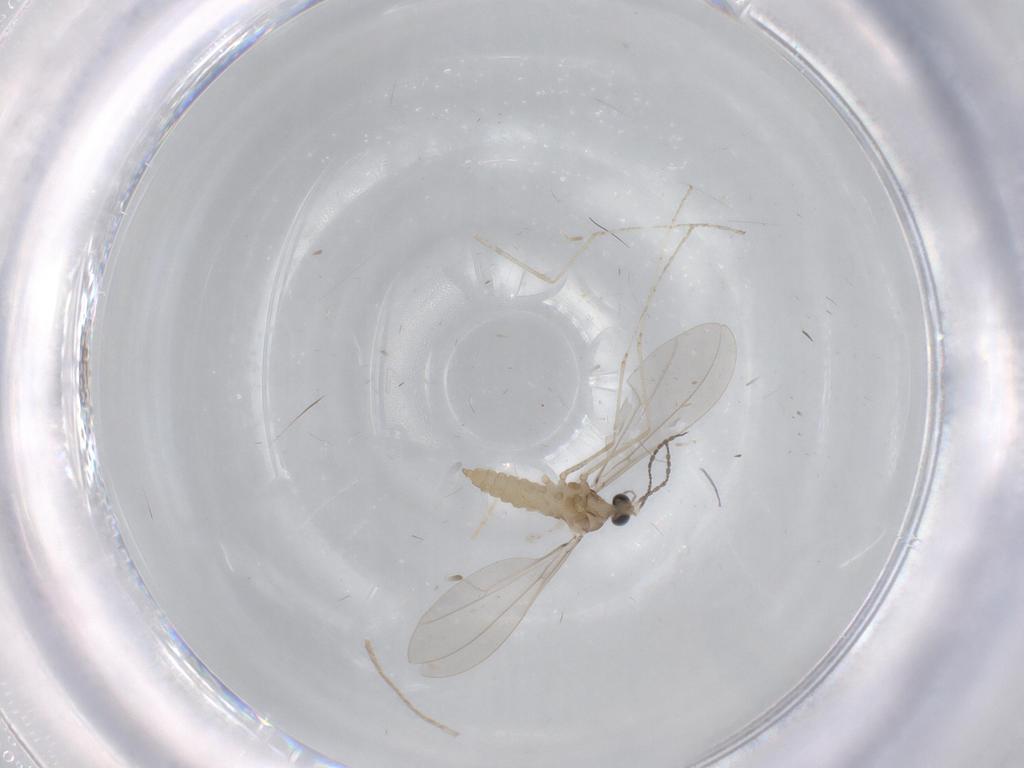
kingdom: Animalia
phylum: Arthropoda
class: Insecta
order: Diptera
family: Cecidomyiidae
